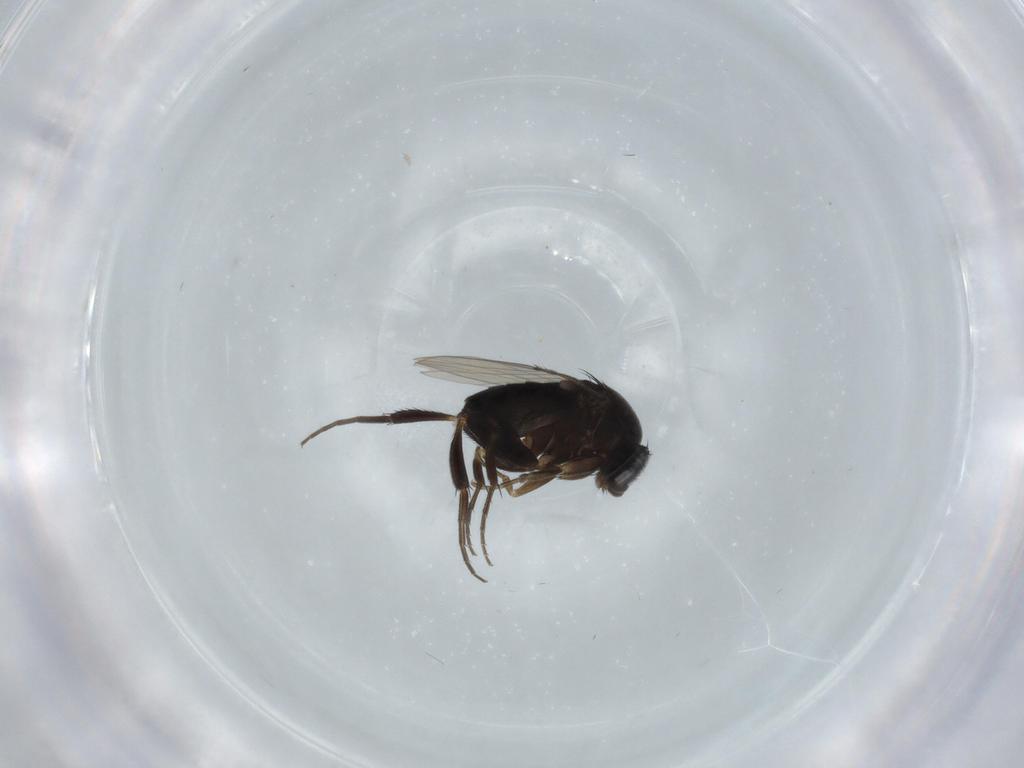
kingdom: Animalia
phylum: Arthropoda
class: Insecta
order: Diptera
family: Phoridae
